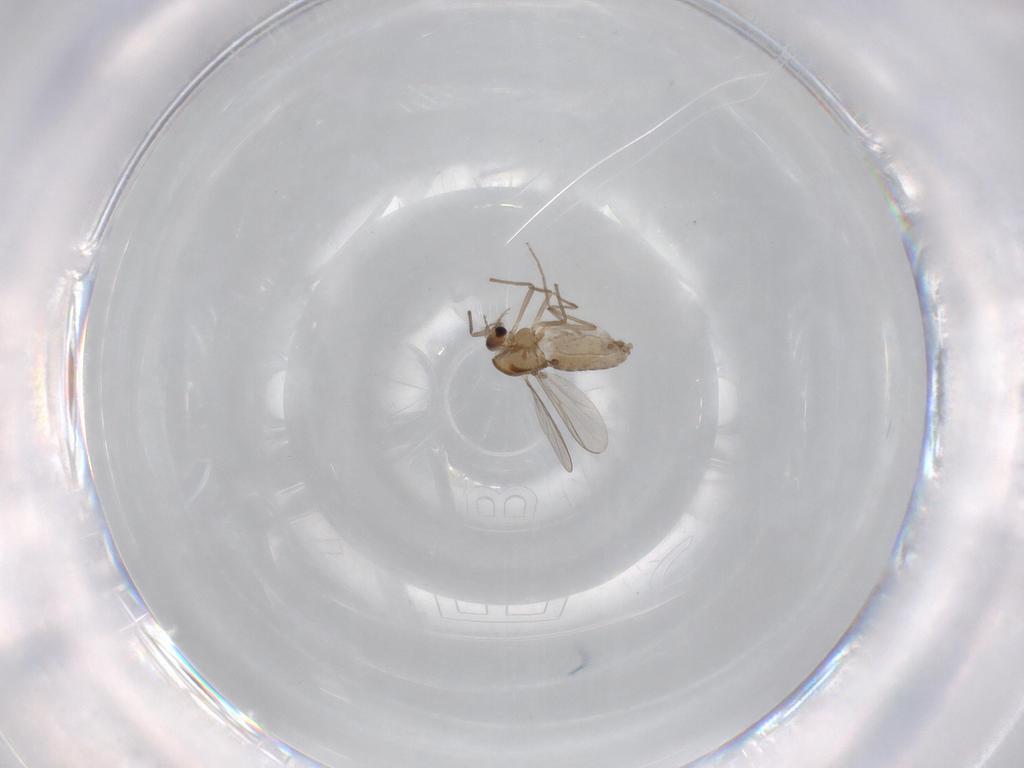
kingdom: Animalia
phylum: Arthropoda
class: Insecta
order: Diptera
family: Chironomidae
